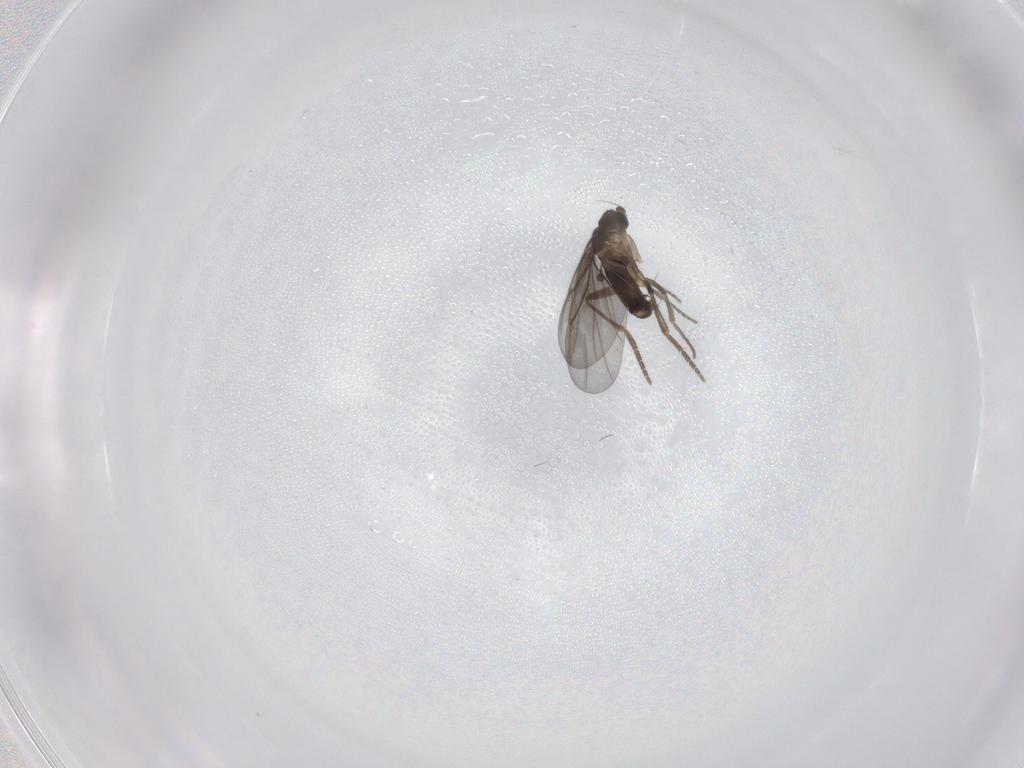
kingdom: Animalia
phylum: Arthropoda
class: Insecta
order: Diptera
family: Phoridae
